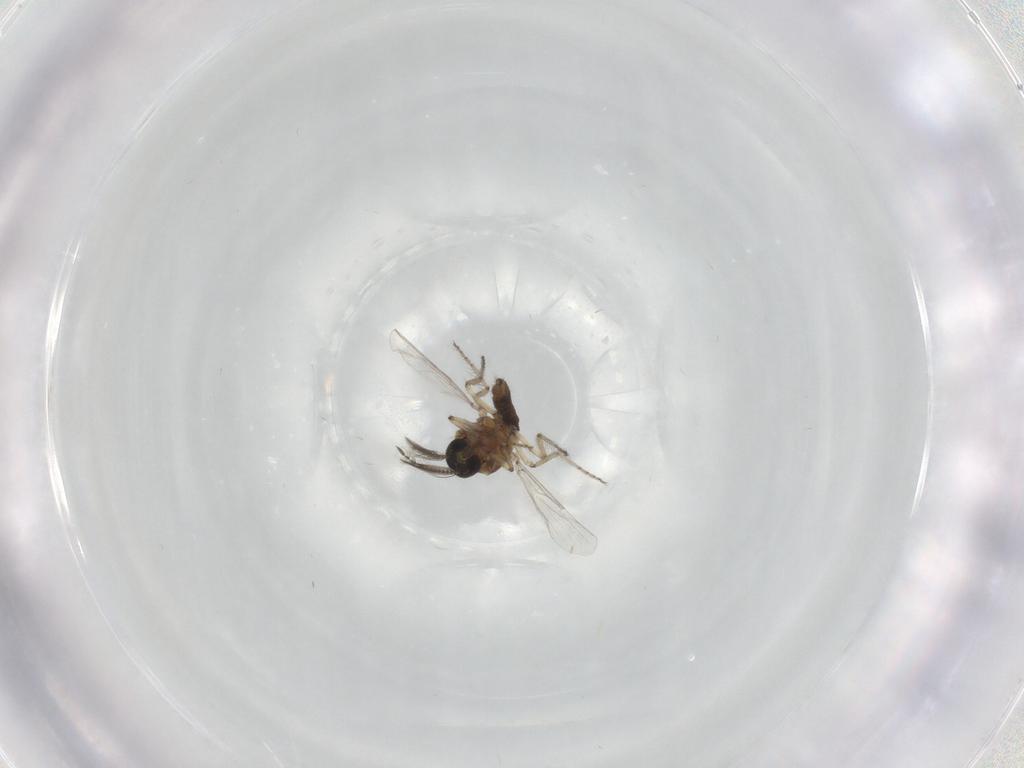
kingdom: Animalia
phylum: Arthropoda
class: Insecta
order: Diptera
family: Ceratopogonidae
